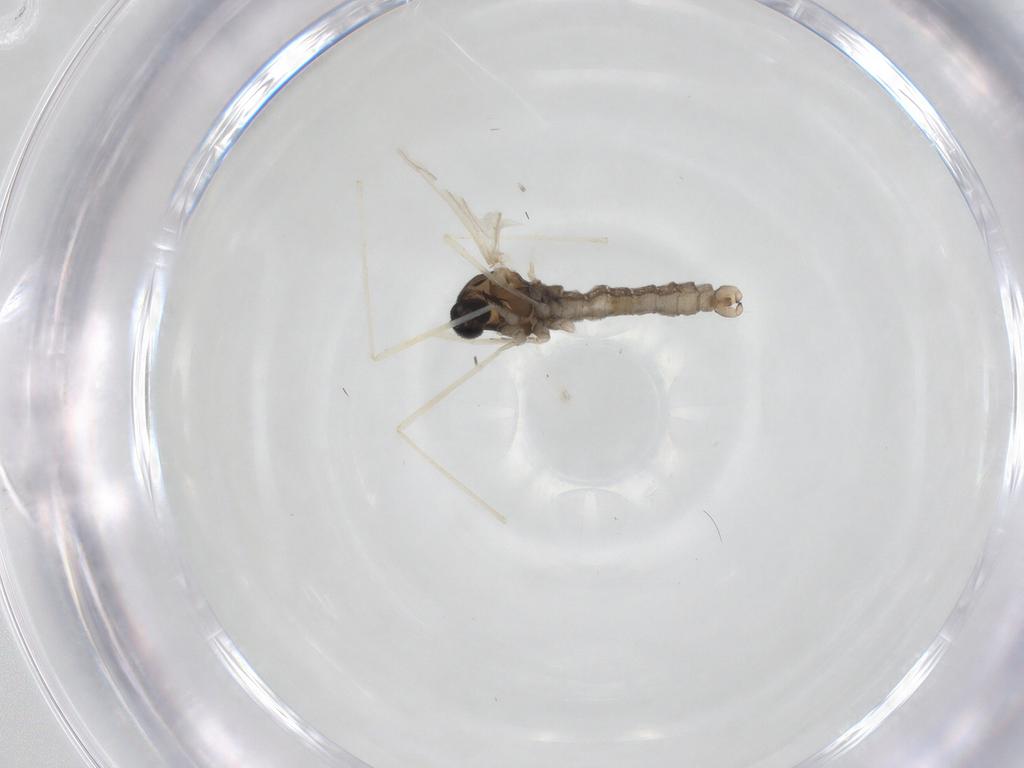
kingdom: Animalia
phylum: Arthropoda
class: Insecta
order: Diptera
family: Cecidomyiidae
